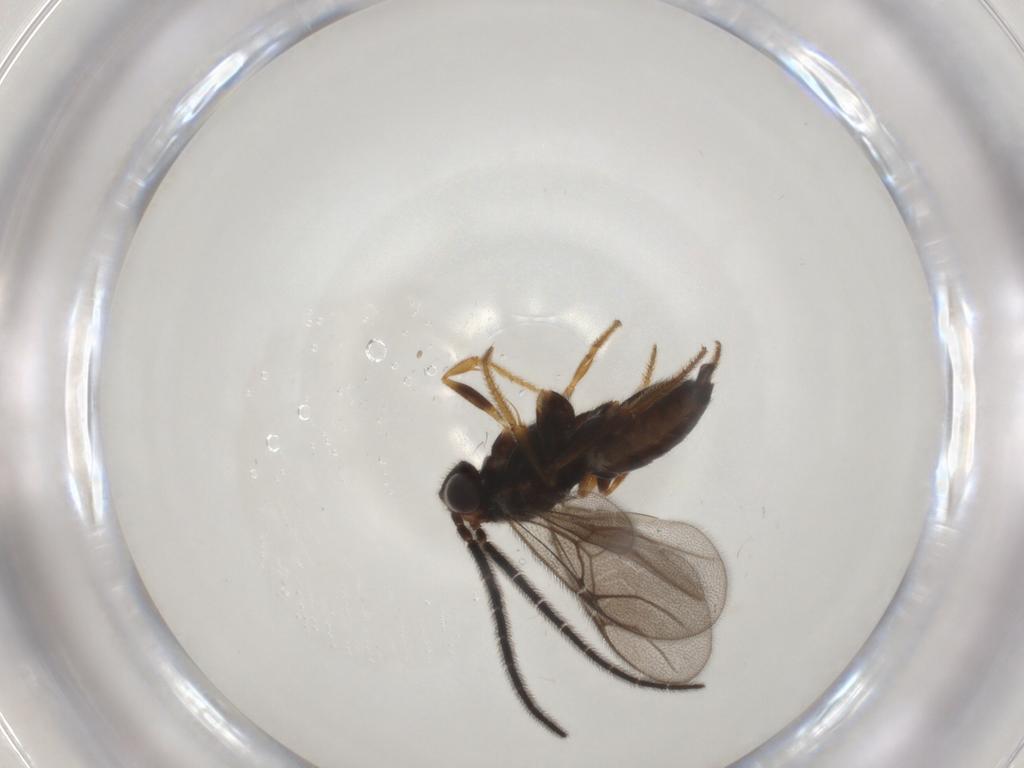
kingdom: Animalia
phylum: Arthropoda
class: Insecta
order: Hymenoptera
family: Dryinidae
